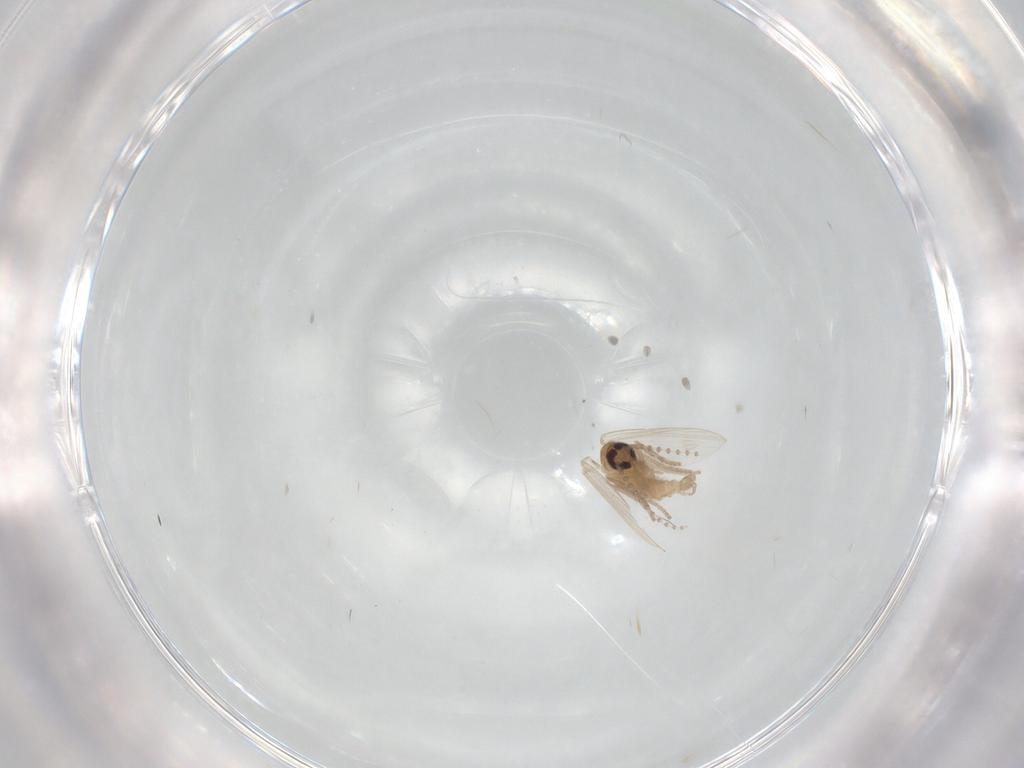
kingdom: Animalia
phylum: Arthropoda
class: Insecta
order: Diptera
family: Psychodidae
